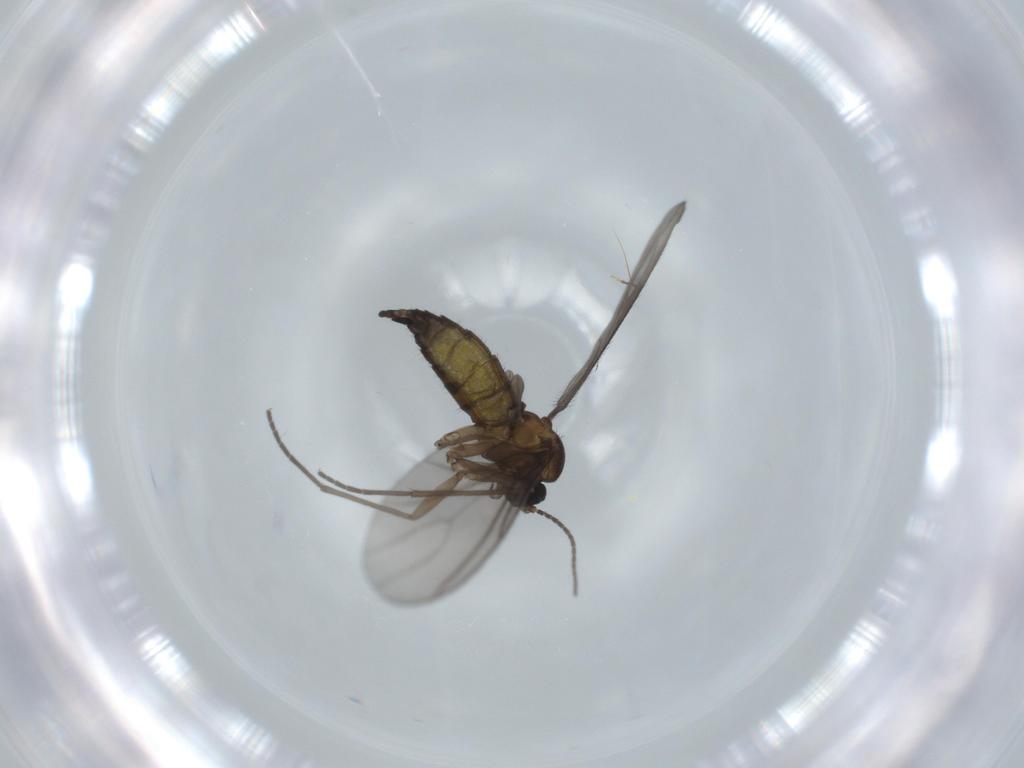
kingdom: Animalia
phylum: Arthropoda
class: Insecta
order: Diptera
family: Sciaridae
